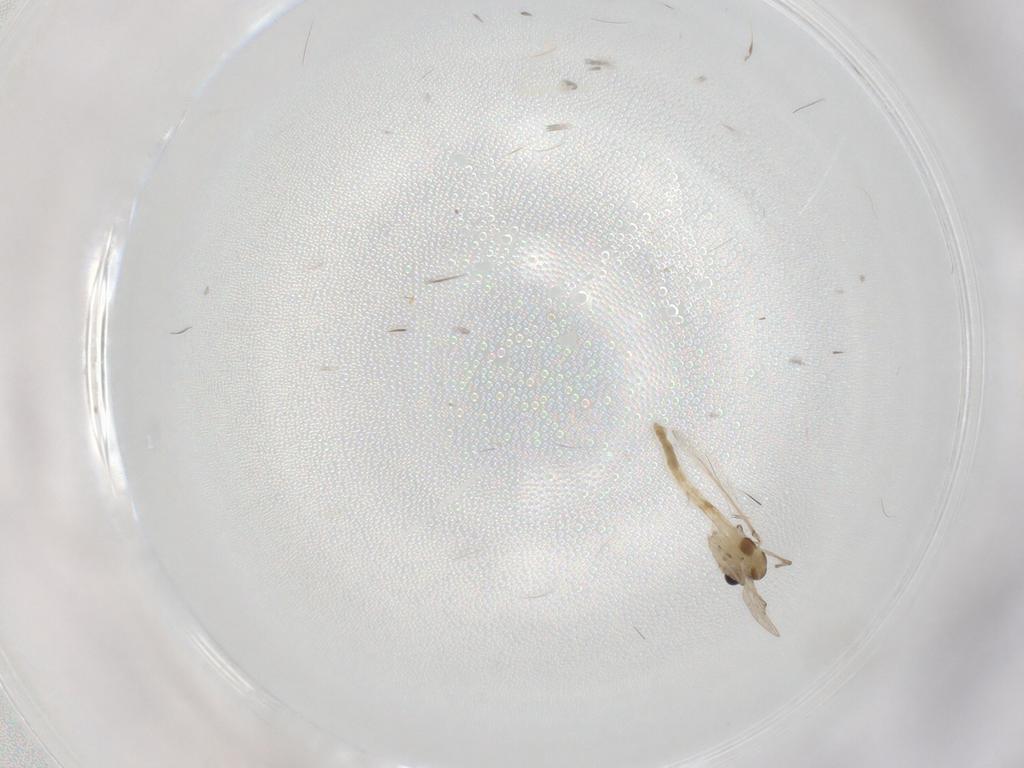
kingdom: Animalia
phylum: Arthropoda
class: Insecta
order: Diptera
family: Cecidomyiidae
